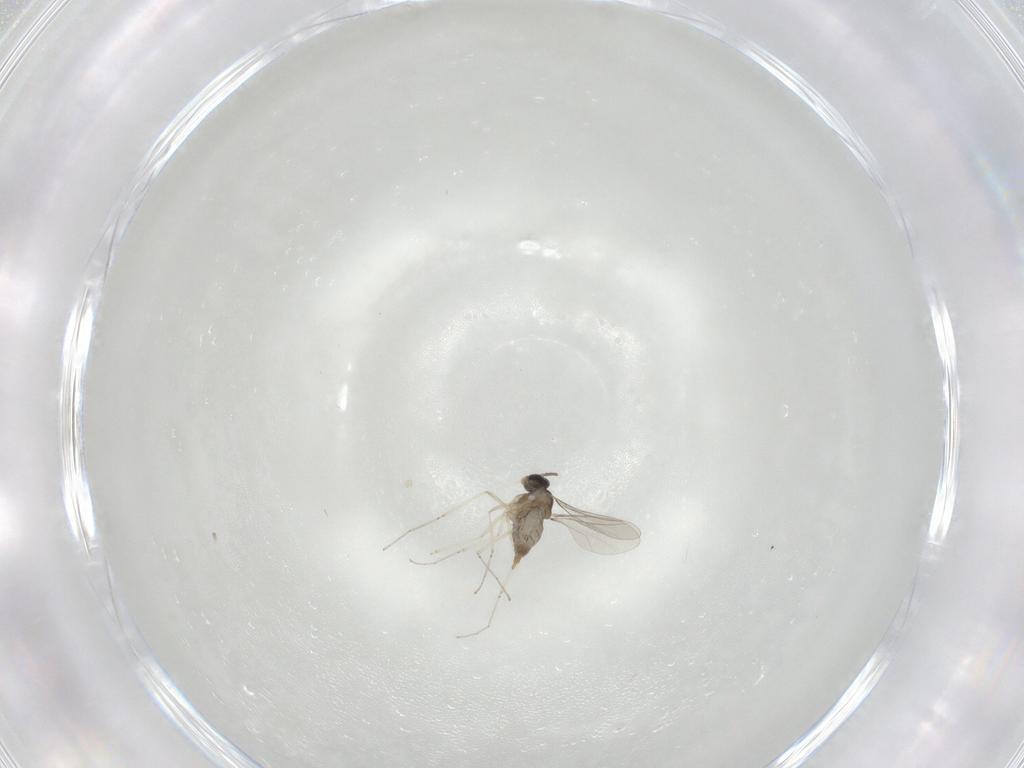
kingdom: Animalia
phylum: Arthropoda
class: Insecta
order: Diptera
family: Cecidomyiidae
